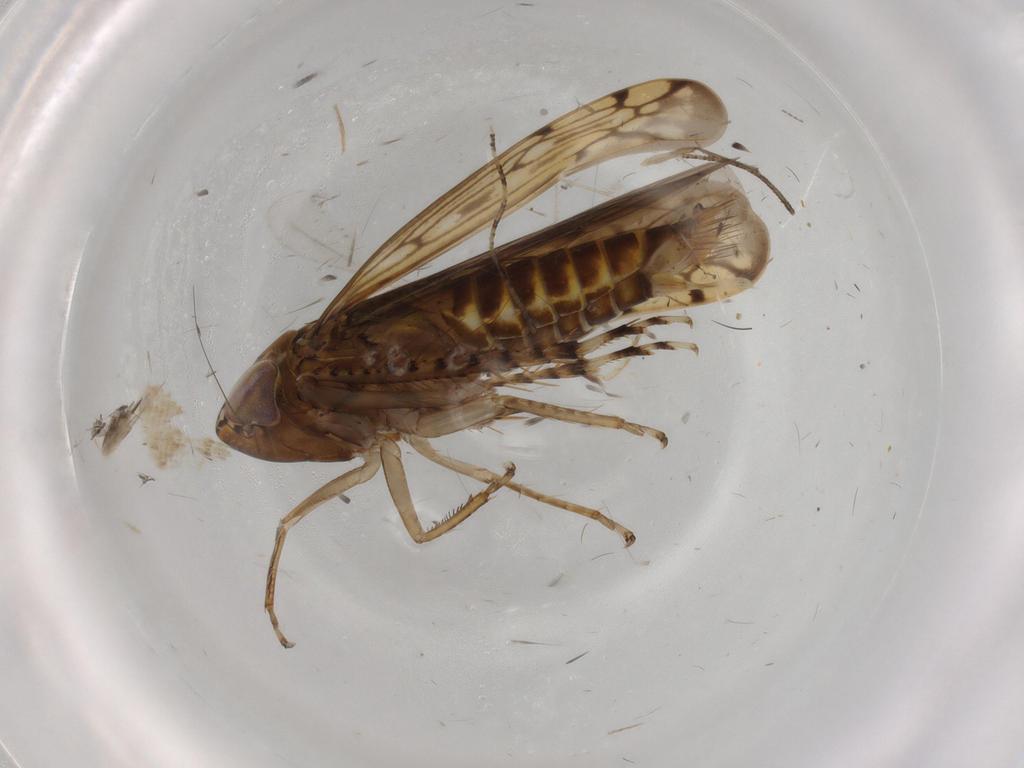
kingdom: Animalia
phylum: Arthropoda
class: Insecta
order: Hemiptera
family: Cicadellidae
